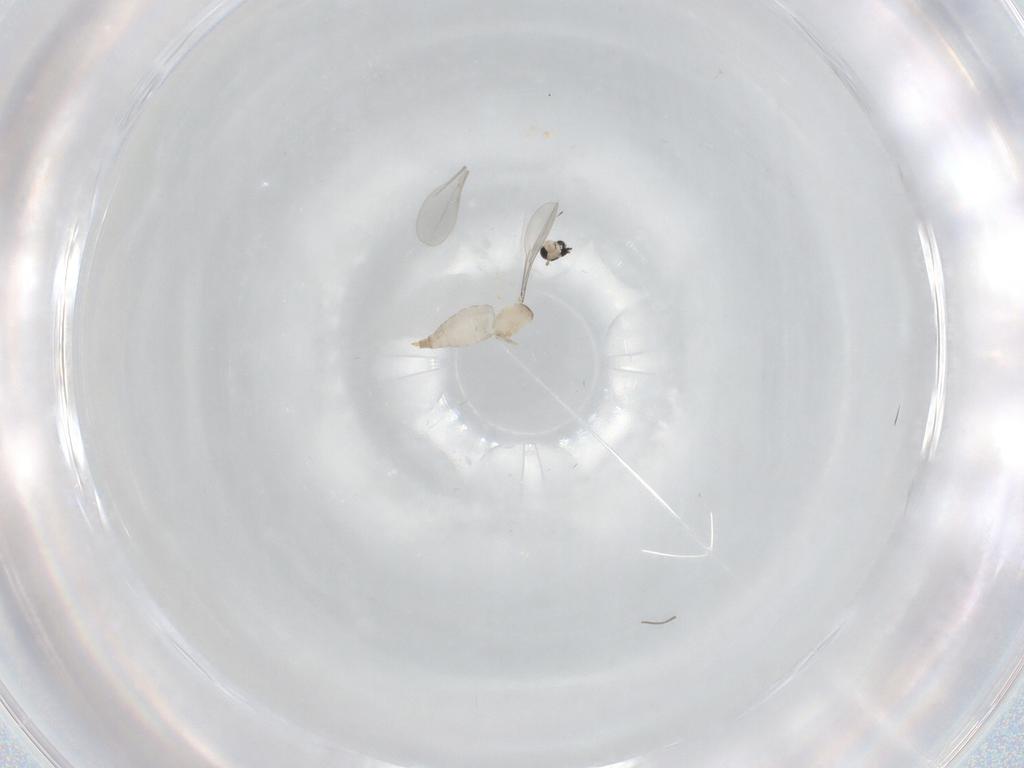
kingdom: Animalia
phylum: Arthropoda
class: Insecta
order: Diptera
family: Cecidomyiidae
